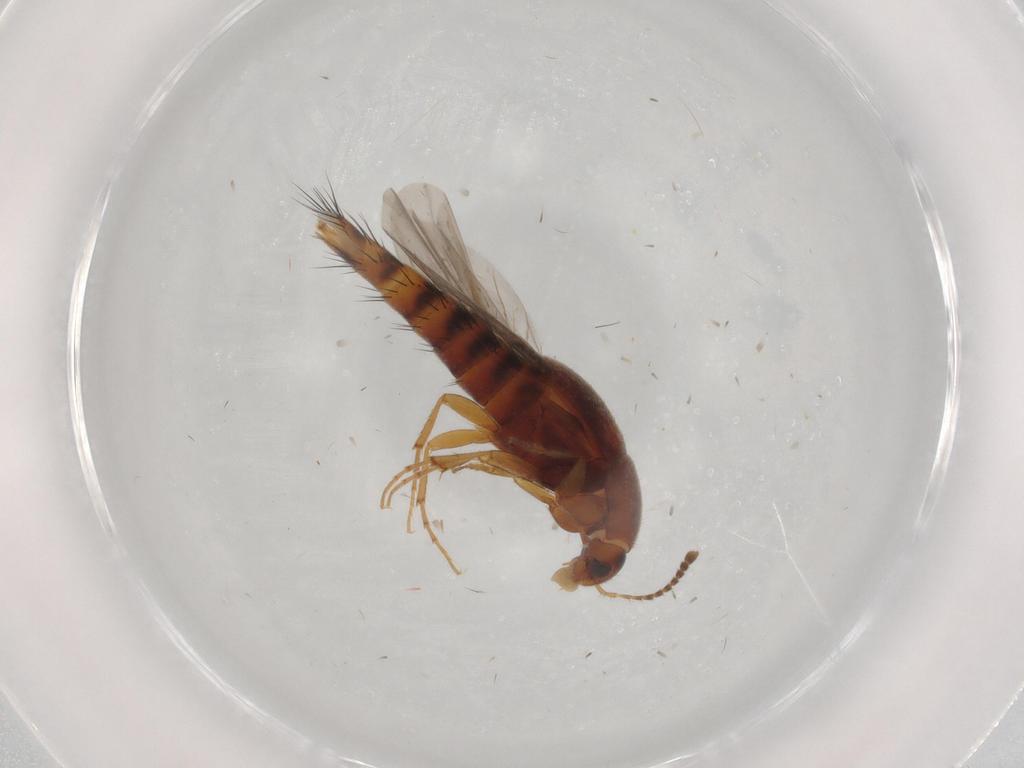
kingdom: Animalia
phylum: Arthropoda
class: Insecta
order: Coleoptera
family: Staphylinidae
